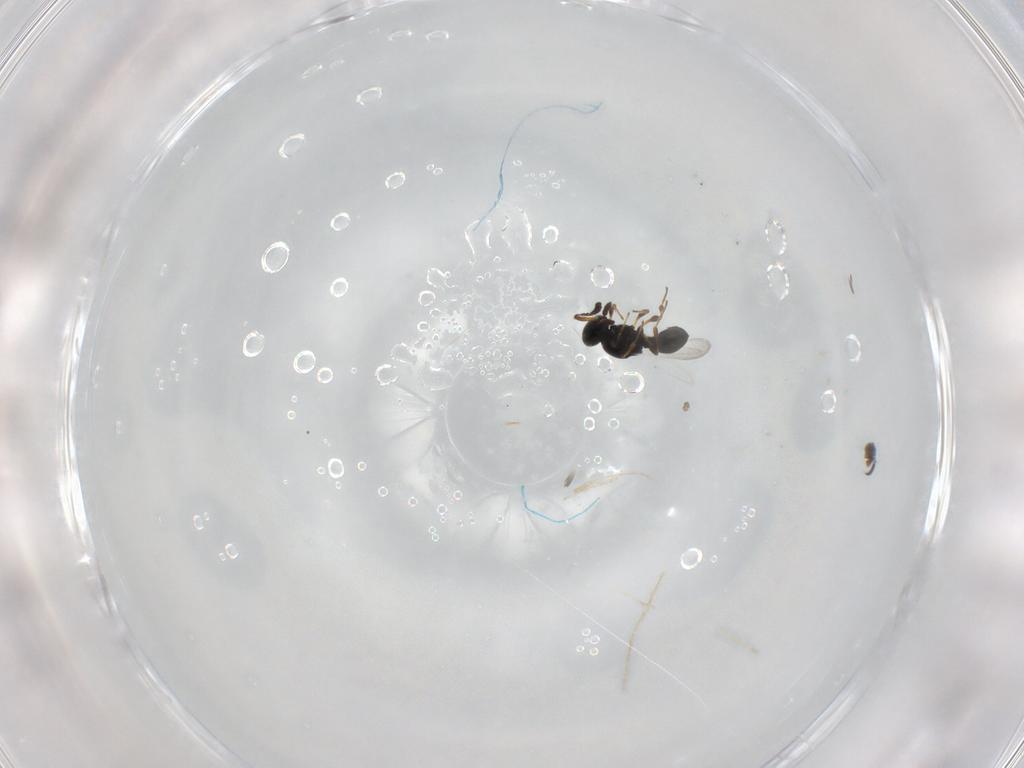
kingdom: Animalia
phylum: Arthropoda
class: Insecta
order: Hymenoptera
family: Platygastridae
